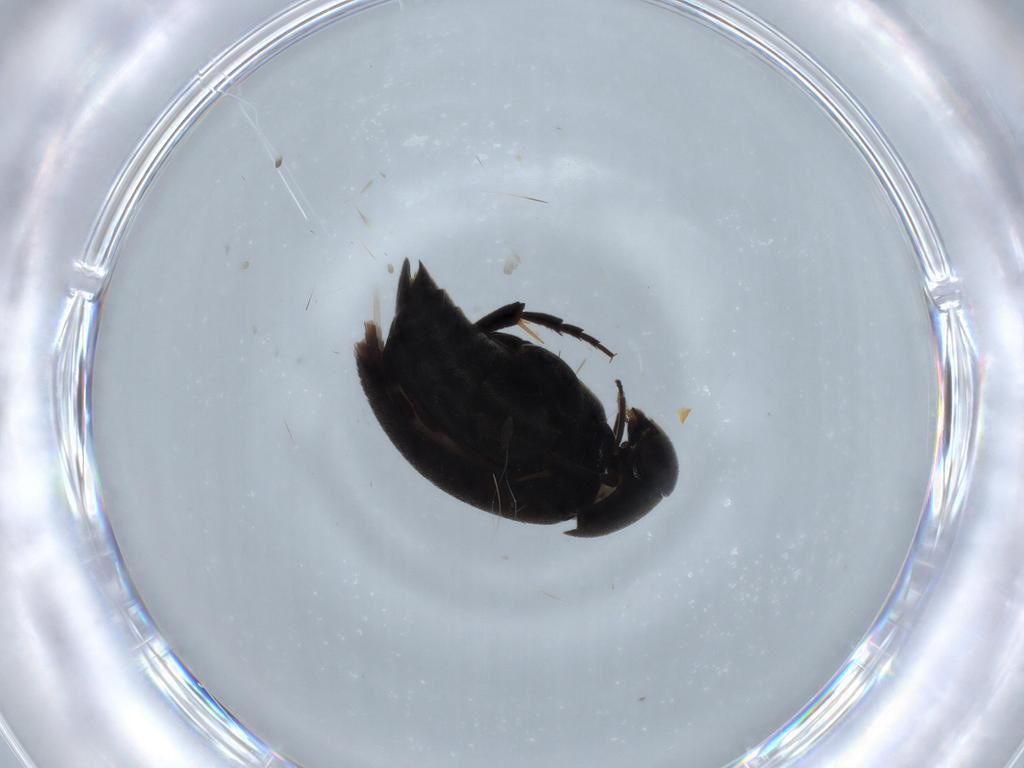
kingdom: Animalia
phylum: Arthropoda
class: Insecta
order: Coleoptera
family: Mordellidae
